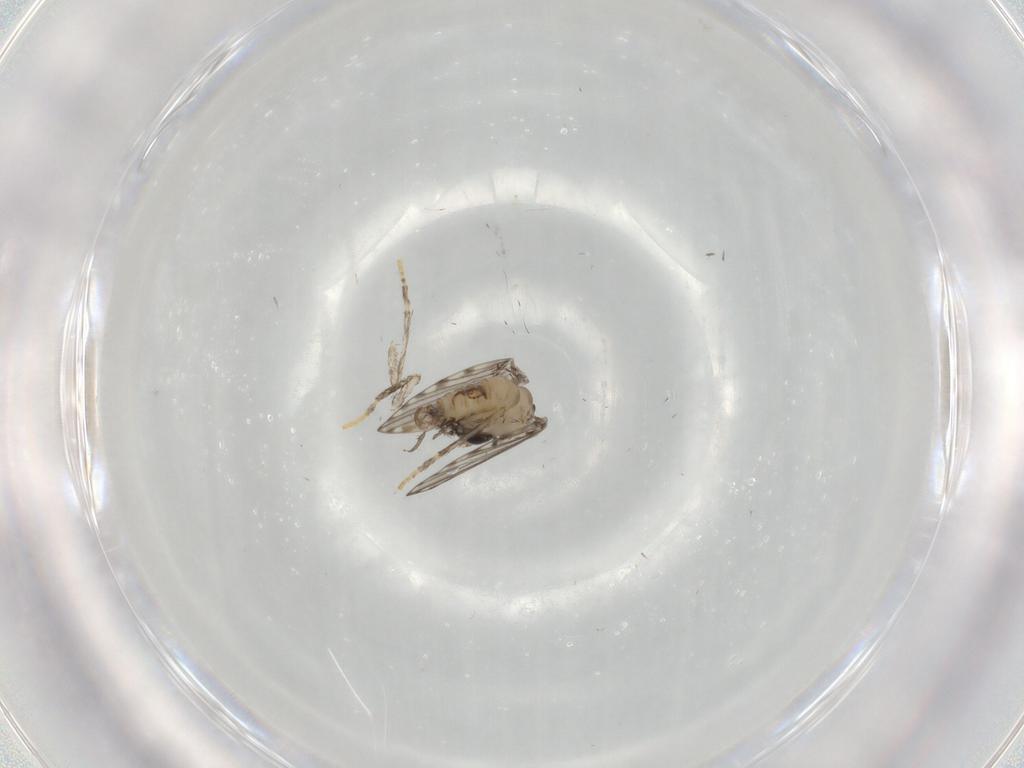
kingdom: Animalia
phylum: Arthropoda
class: Insecta
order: Diptera
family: Psychodidae
